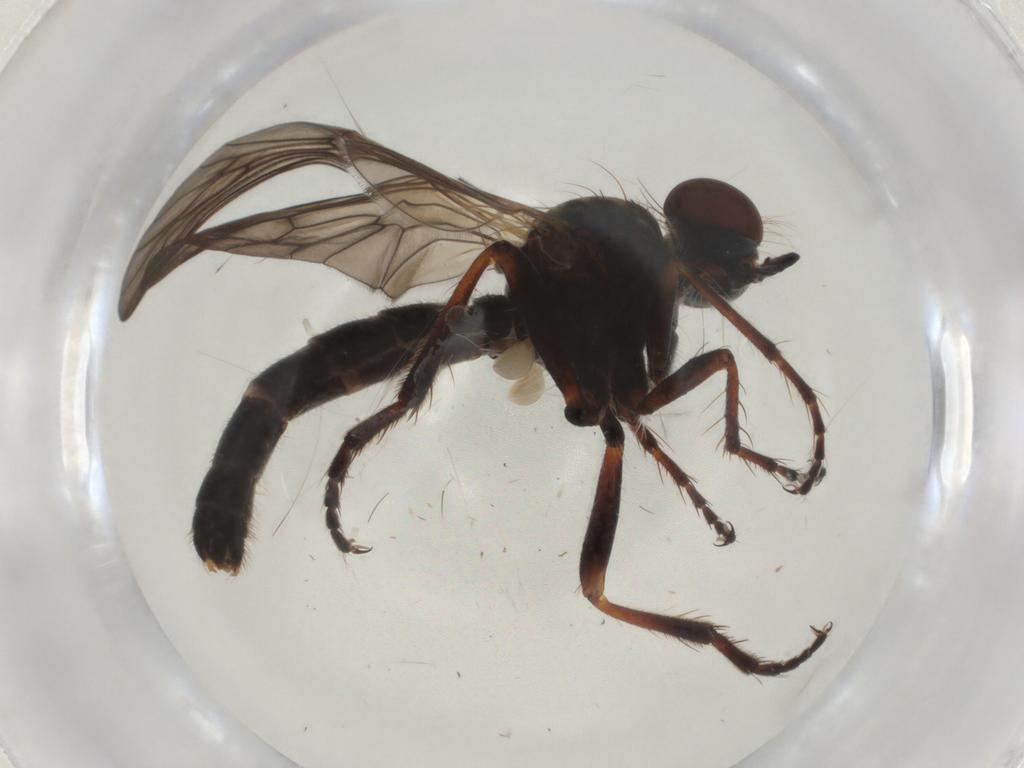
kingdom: Animalia
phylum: Arthropoda
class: Insecta
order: Diptera
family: Asilidae
